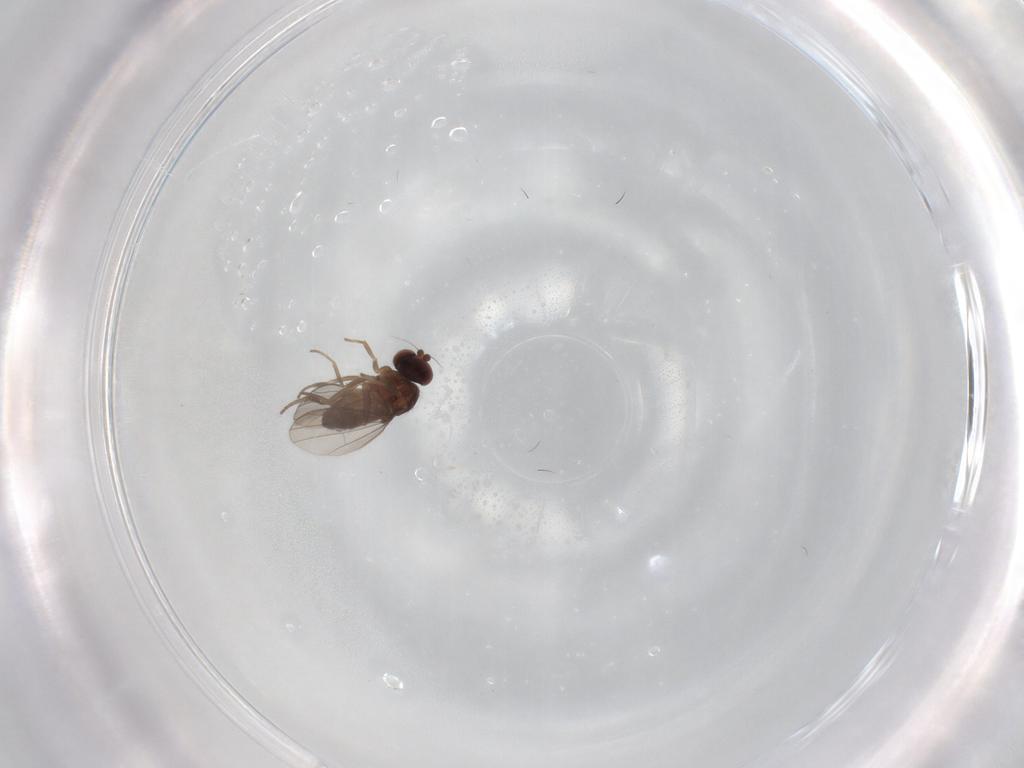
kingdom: Animalia
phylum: Arthropoda
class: Insecta
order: Diptera
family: Dolichopodidae
